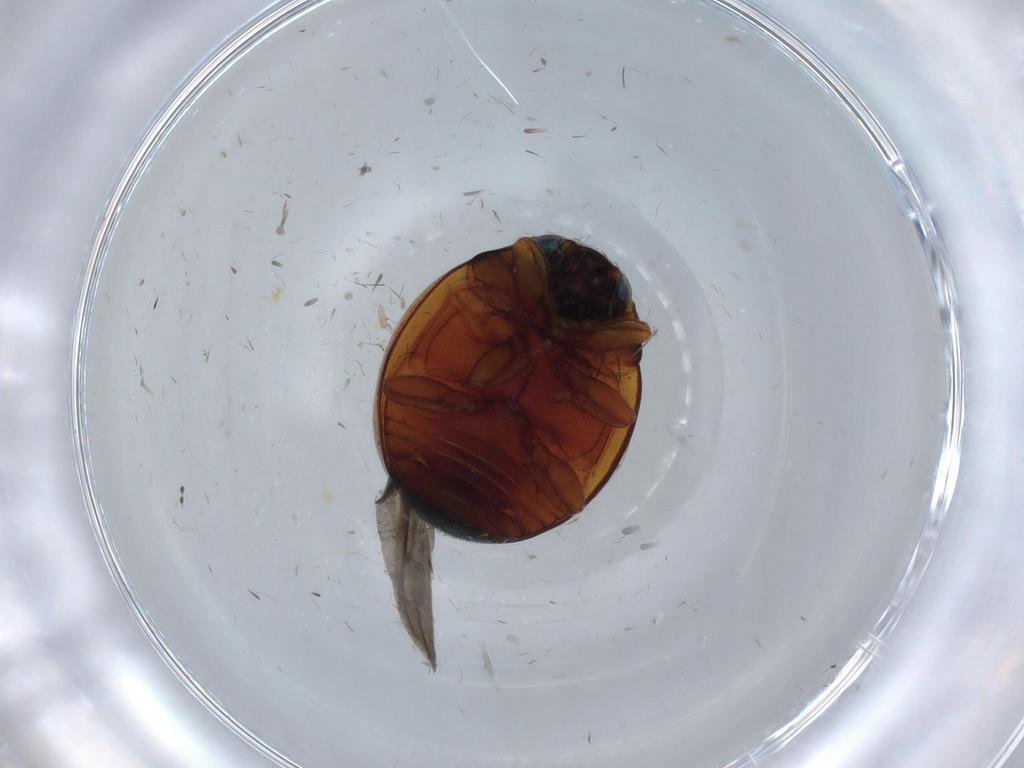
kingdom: Animalia
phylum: Arthropoda
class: Insecta
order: Coleoptera
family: Coccinellidae
